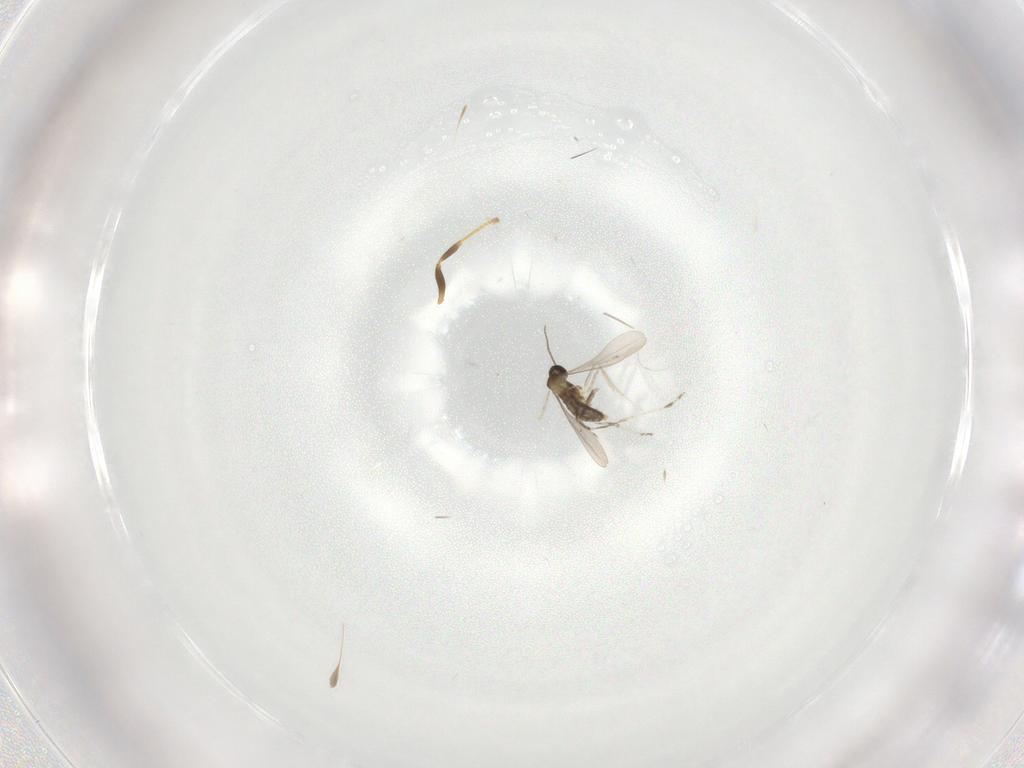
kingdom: Animalia
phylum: Arthropoda
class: Insecta
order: Diptera
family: Cecidomyiidae
